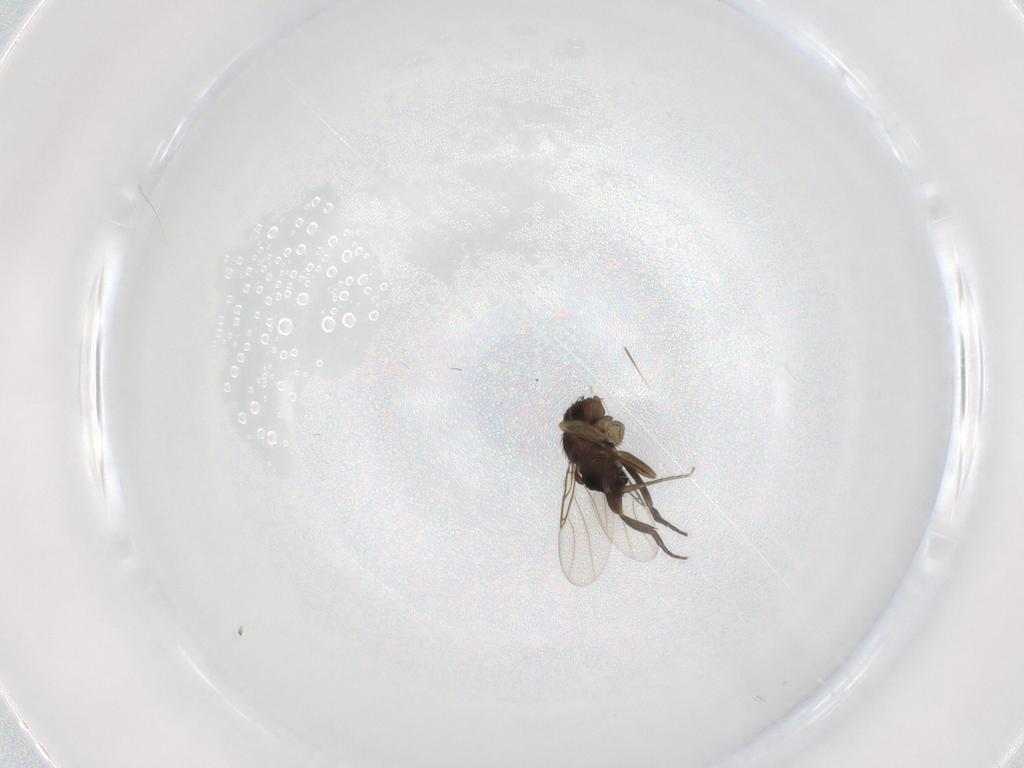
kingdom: Animalia
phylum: Arthropoda
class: Insecta
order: Diptera
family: Phoridae
